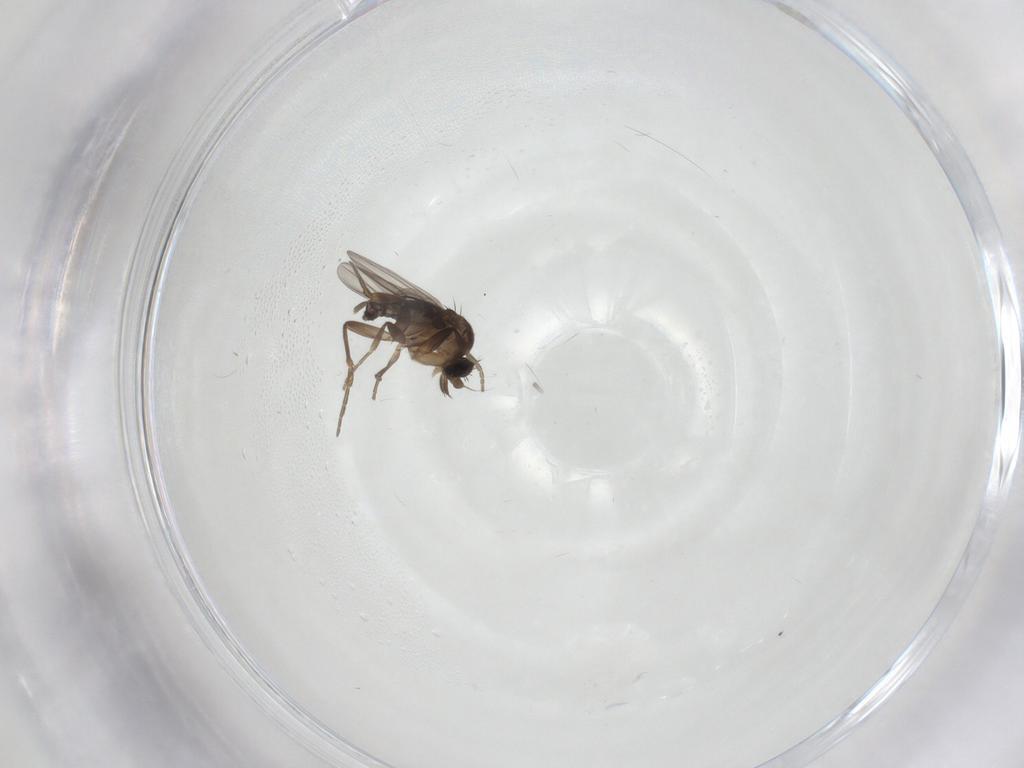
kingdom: Animalia
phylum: Arthropoda
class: Insecta
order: Diptera
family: Phoridae
